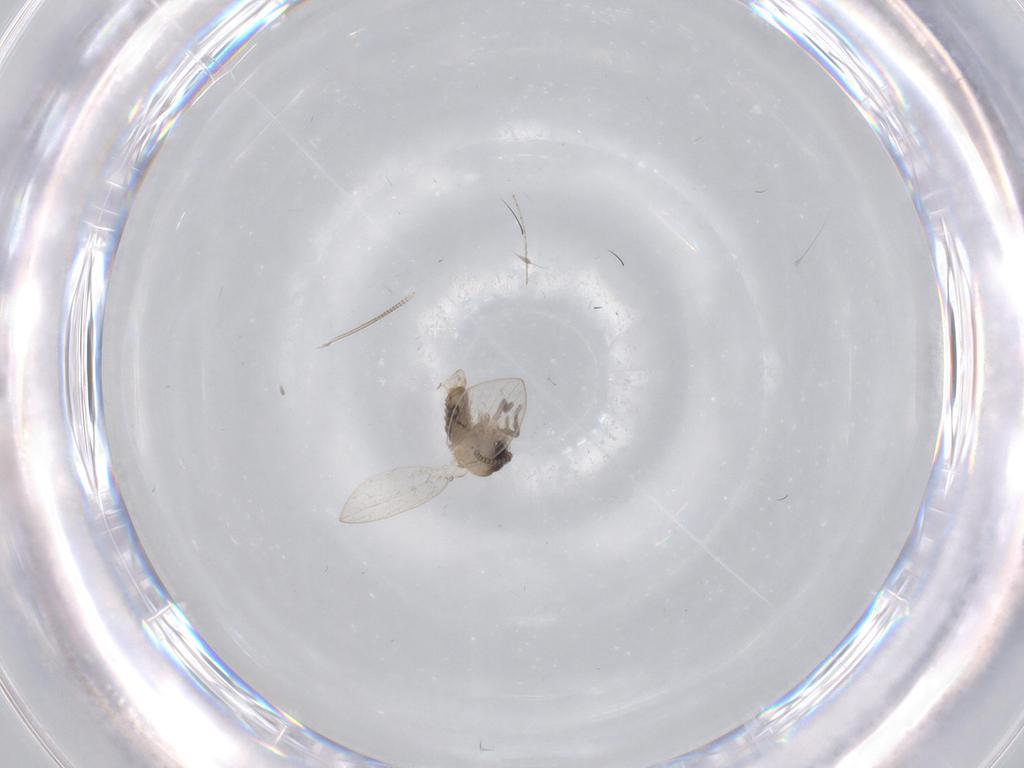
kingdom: Animalia
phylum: Arthropoda
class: Insecta
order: Diptera
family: Psychodidae
